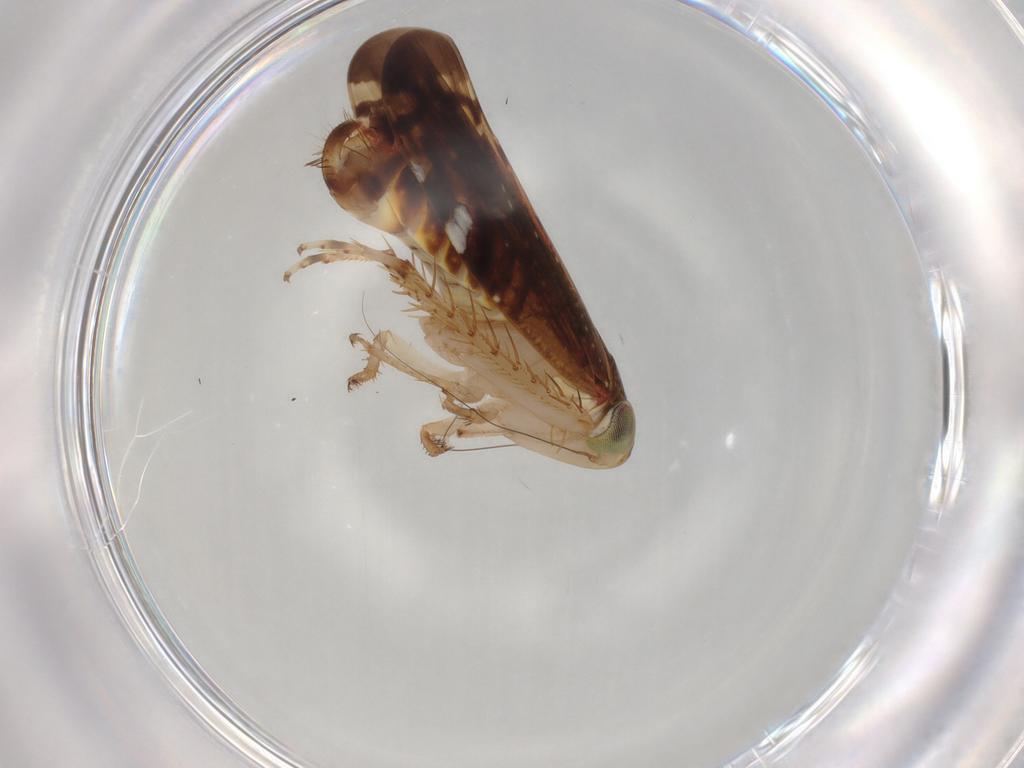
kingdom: Animalia
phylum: Arthropoda
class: Insecta
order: Hemiptera
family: Cicadellidae
